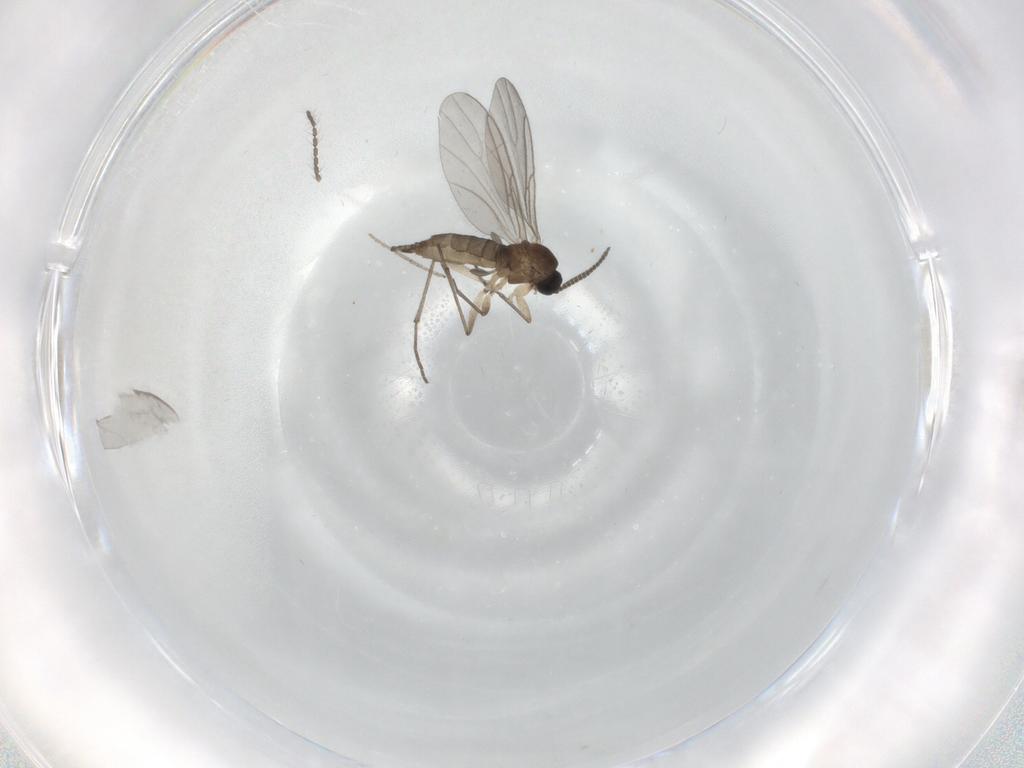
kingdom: Animalia
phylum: Arthropoda
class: Insecta
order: Diptera
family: Sciaridae
